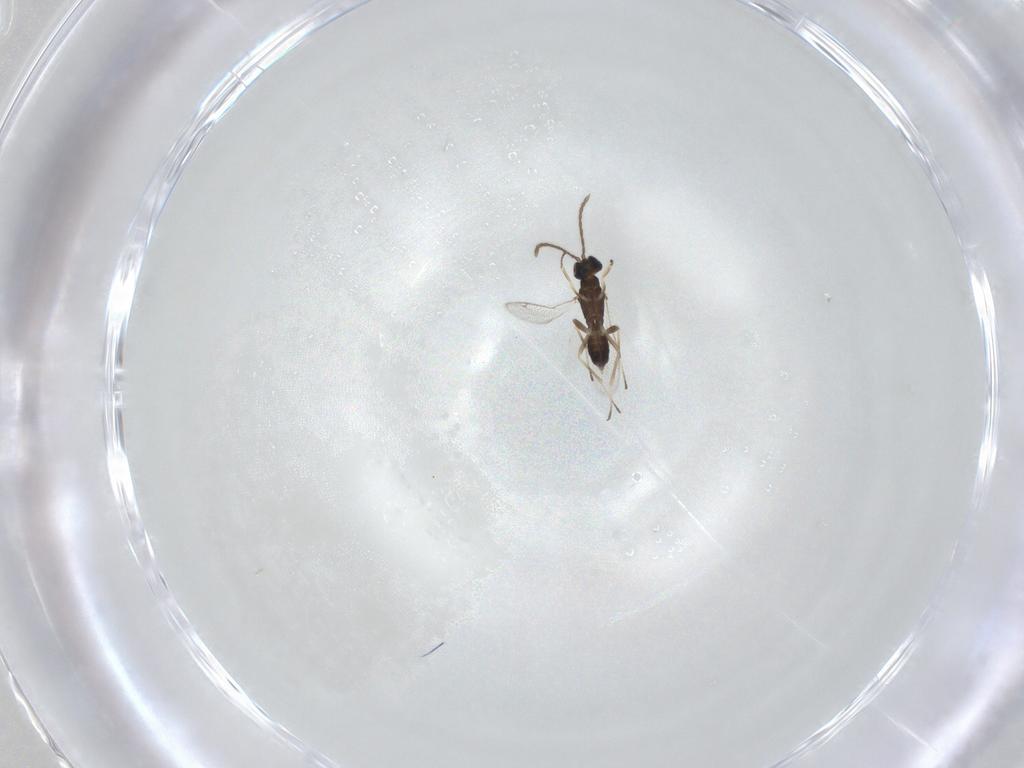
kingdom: Animalia
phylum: Arthropoda
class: Insecta
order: Hymenoptera
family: Eupelmidae
